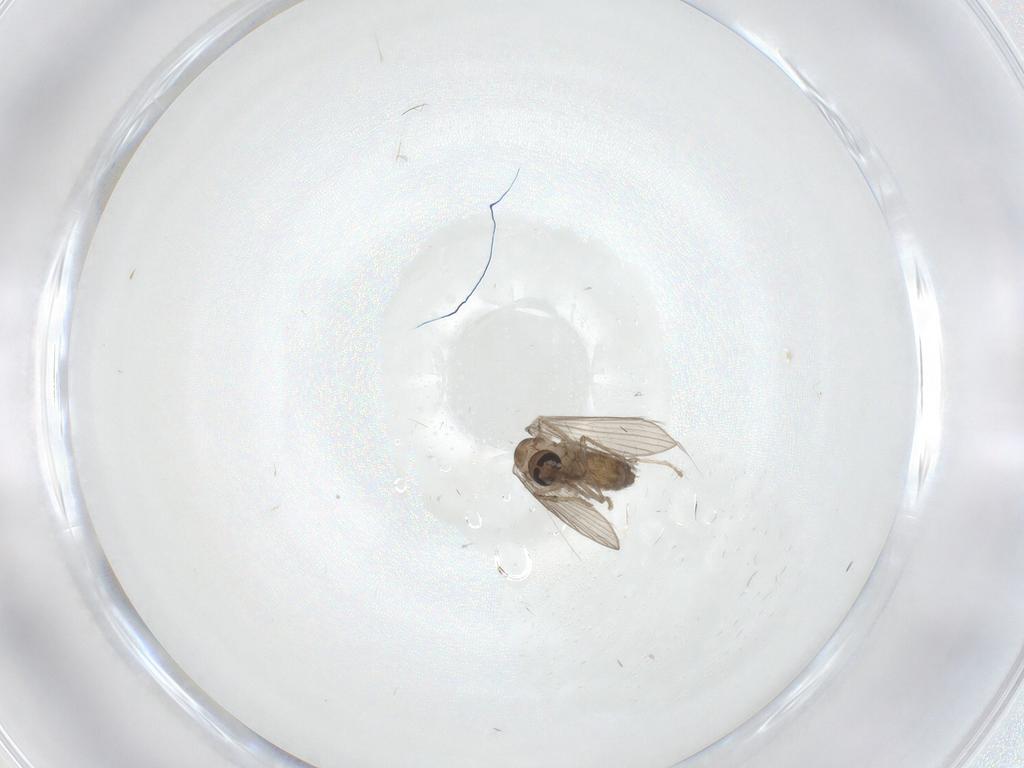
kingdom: Animalia
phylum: Arthropoda
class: Insecta
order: Diptera
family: Psychodidae
